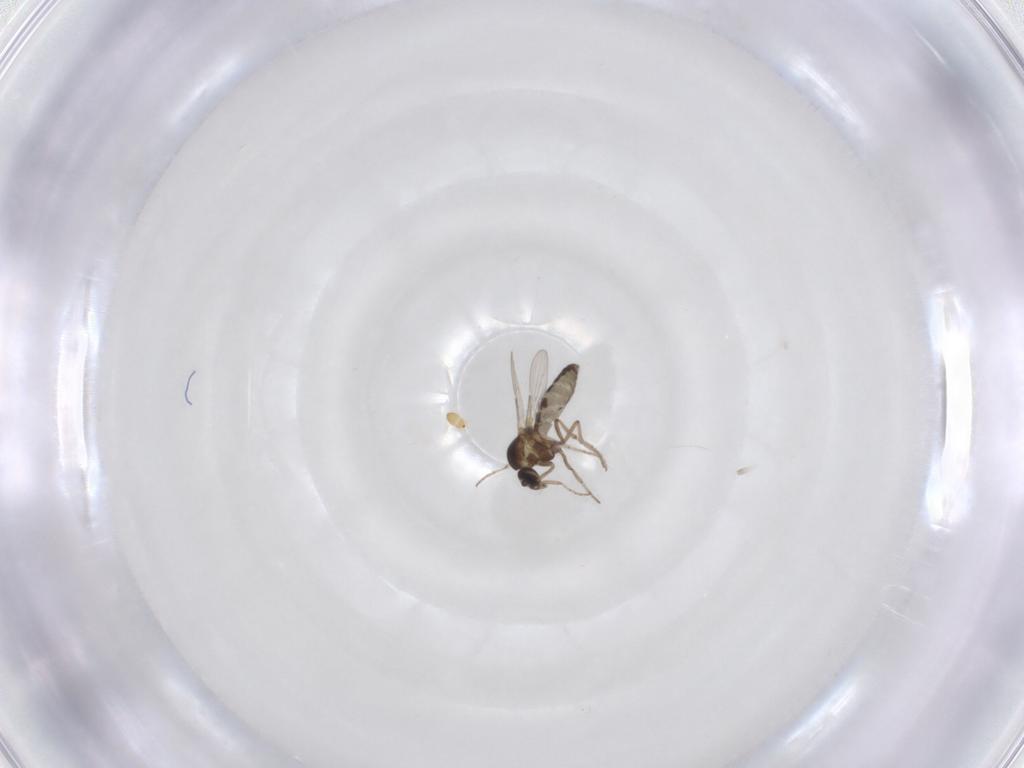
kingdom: Animalia
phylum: Arthropoda
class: Insecta
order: Diptera
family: Ceratopogonidae
